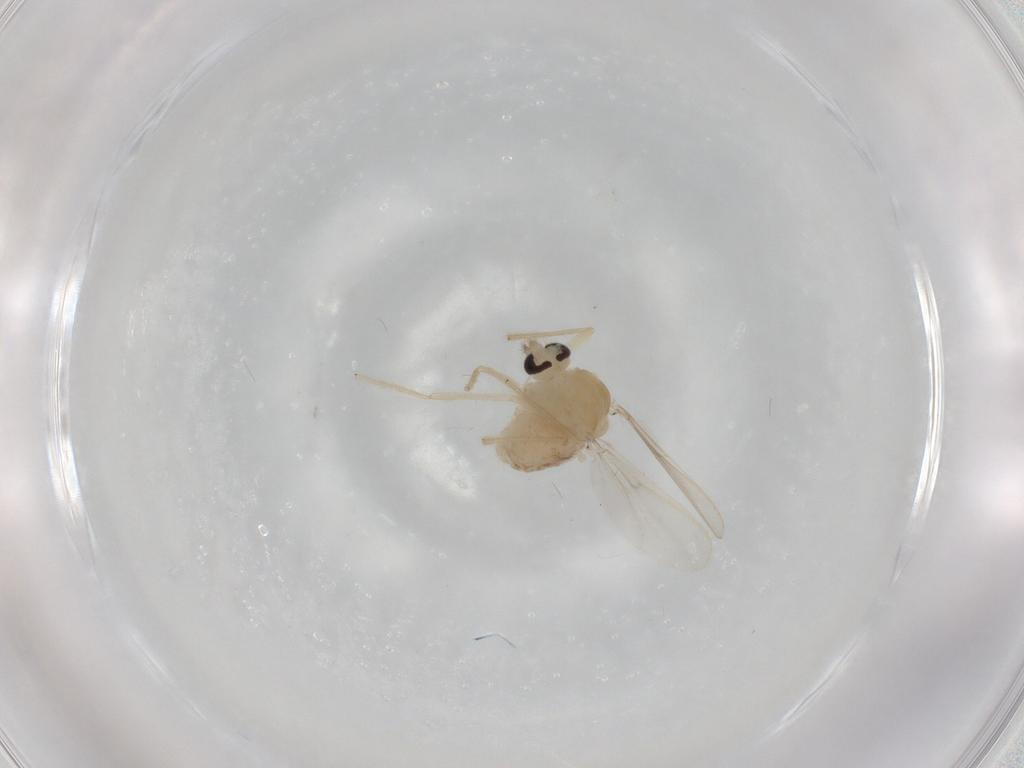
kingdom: Animalia
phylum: Arthropoda
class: Insecta
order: Diptera
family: Chironomidae
